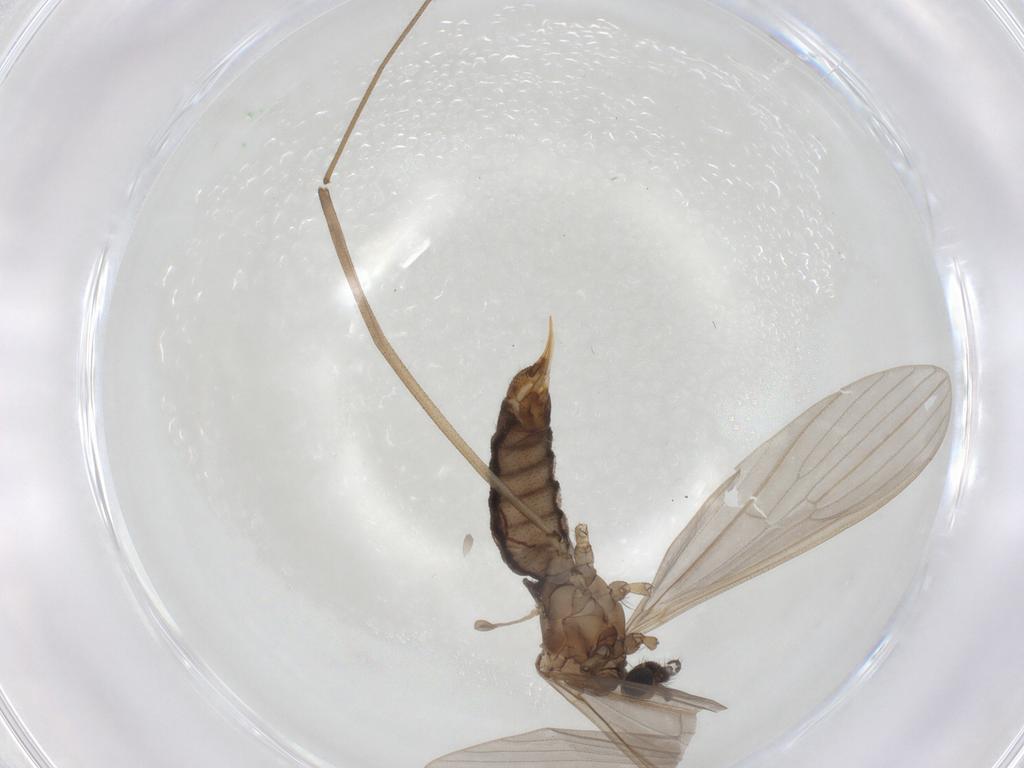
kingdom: Animalia
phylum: Arthropoda
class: Insecta
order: Diptera
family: Limoniidae
